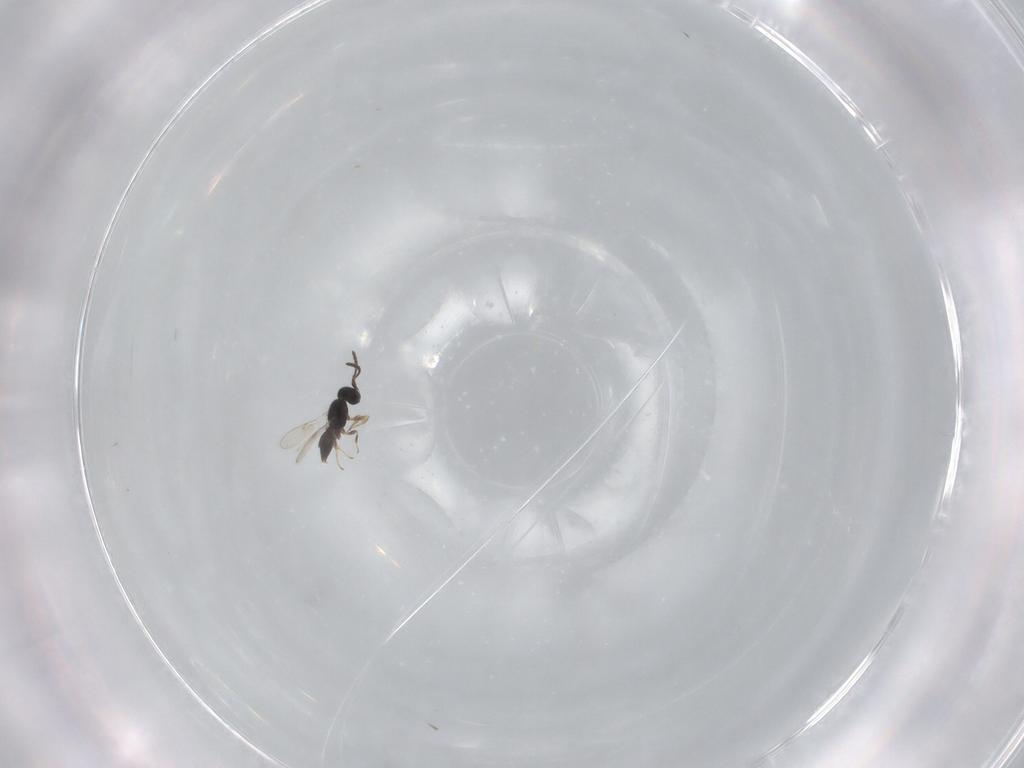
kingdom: Animalia
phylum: Arthropoda
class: Insecta
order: Hymenoptera
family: Scelionidae
